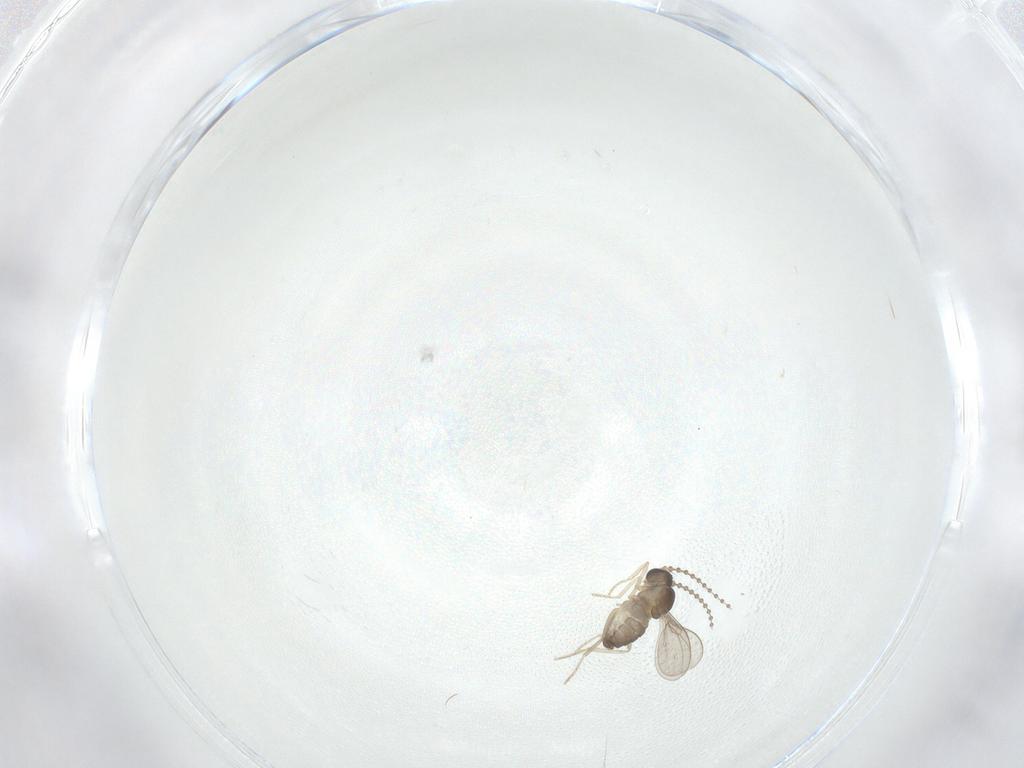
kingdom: Animalia
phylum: Arthropoda
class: Insecta
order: Diptera
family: Cecidomyiidae
